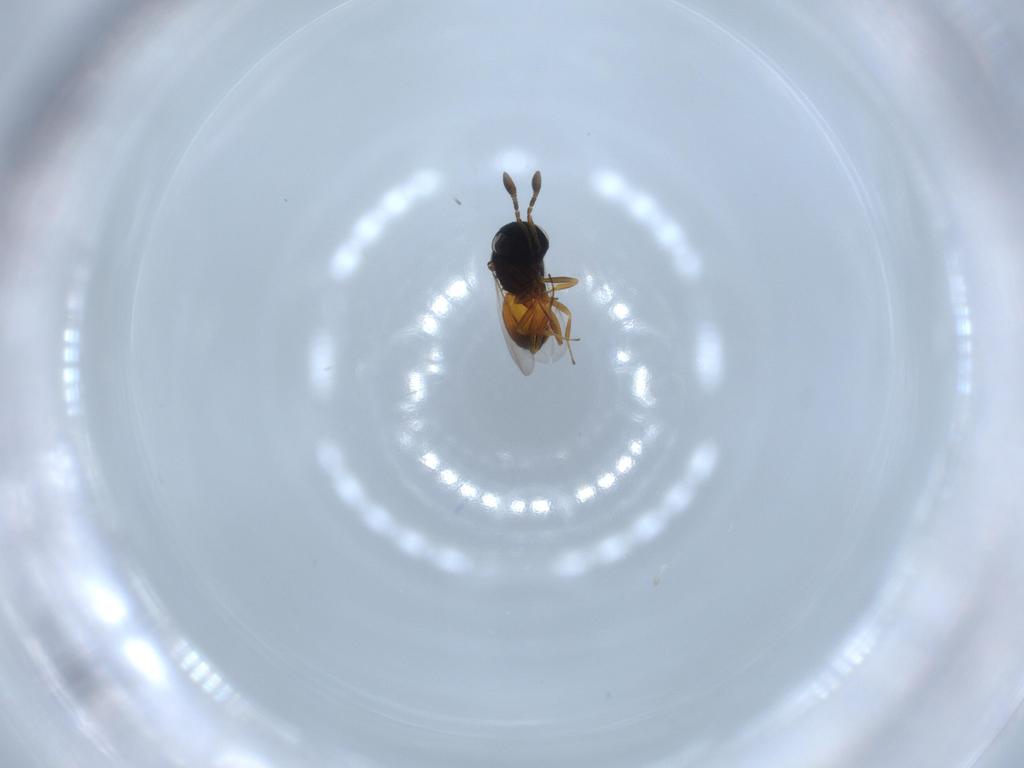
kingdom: Animalia
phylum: Arthropoda
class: Insecta
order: Hymenoptera
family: Scelionidae
